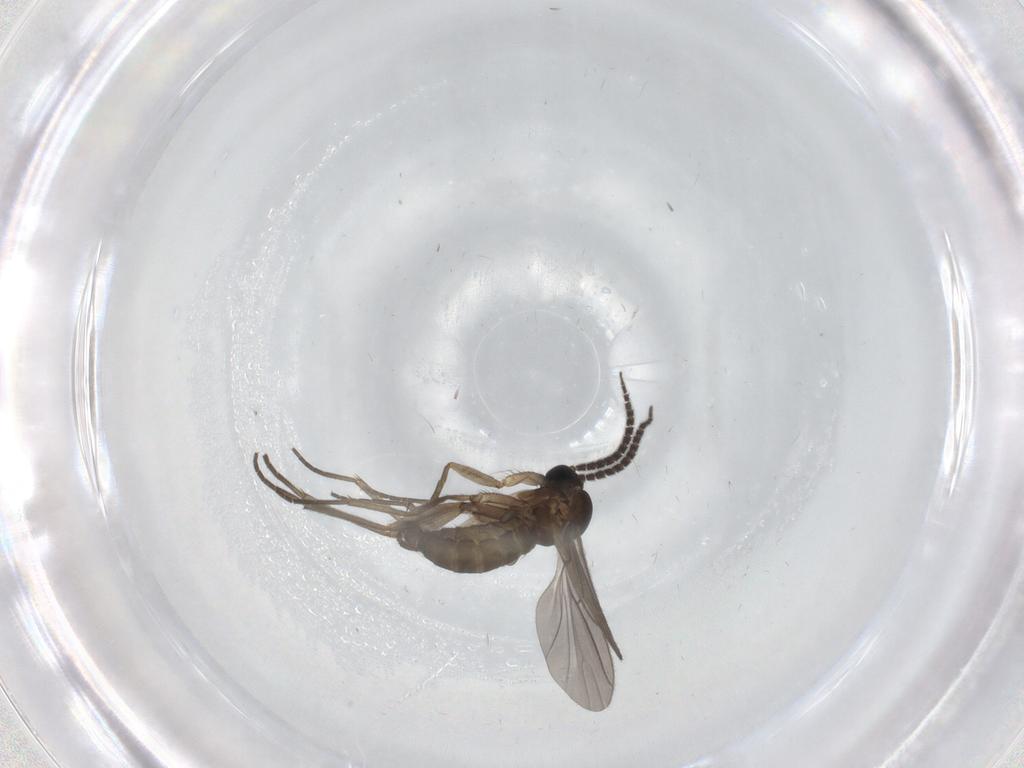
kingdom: Animalia
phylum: Arthropoda
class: Insecta
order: Diptera
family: Sciaridae
